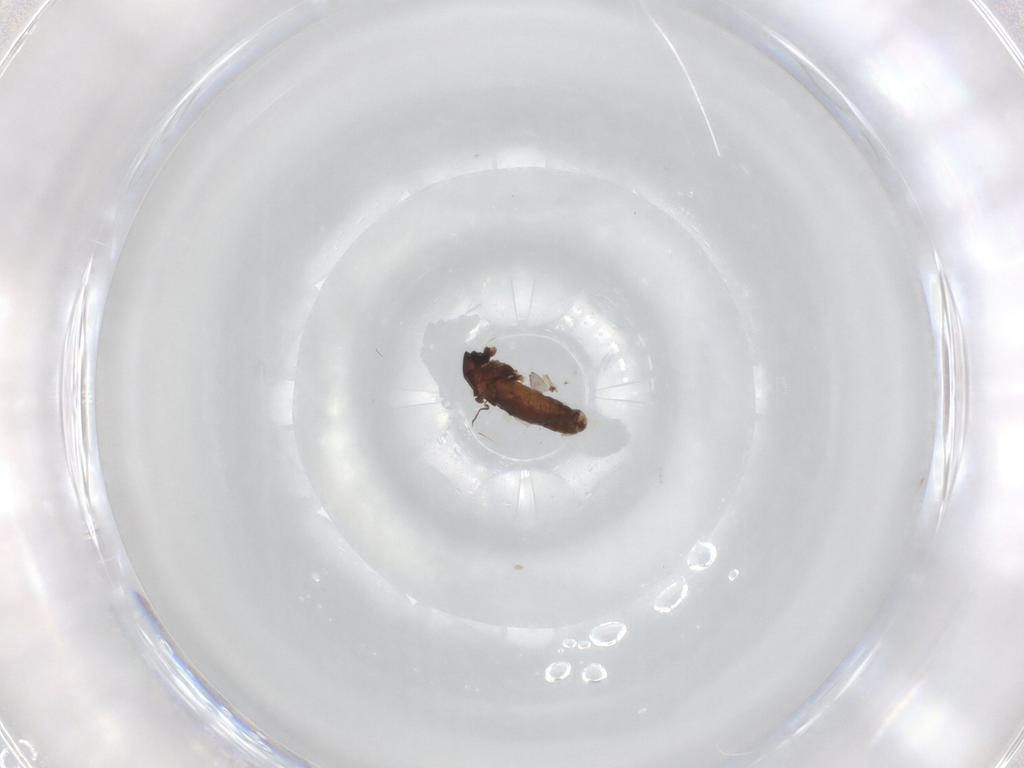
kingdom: Animalia
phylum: Arthropoda
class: Insecta
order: Diptera
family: Chironomidae
